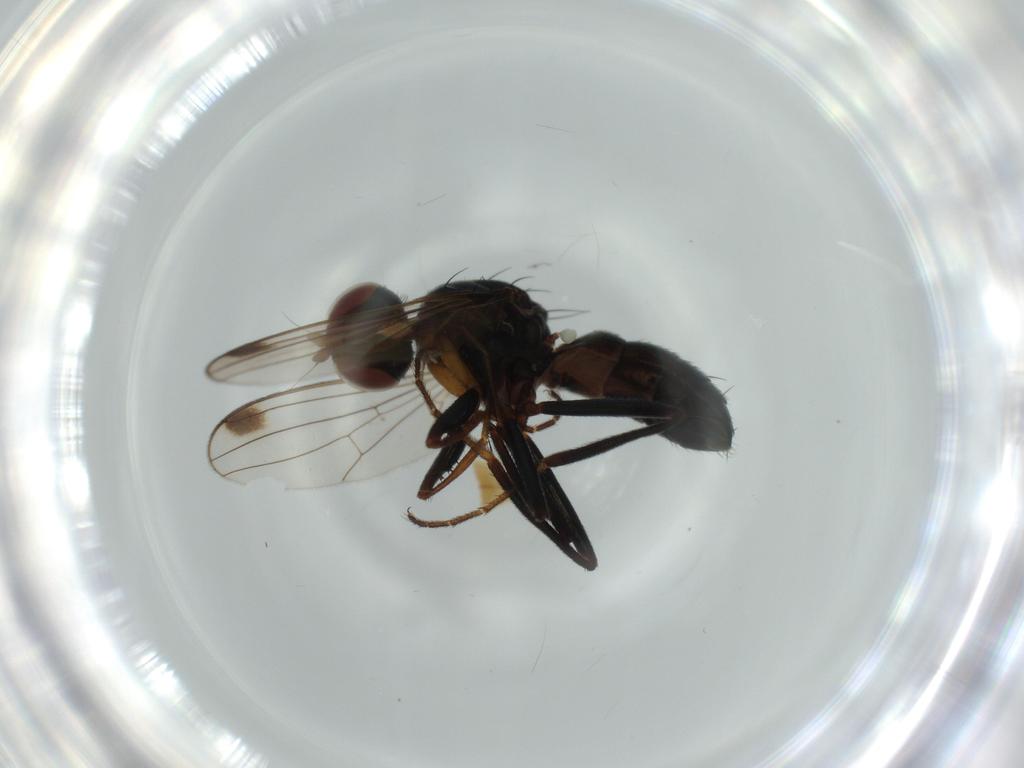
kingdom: Animalia
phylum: Arthropoda
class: Insecta
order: Diptera
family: Sepsidae
